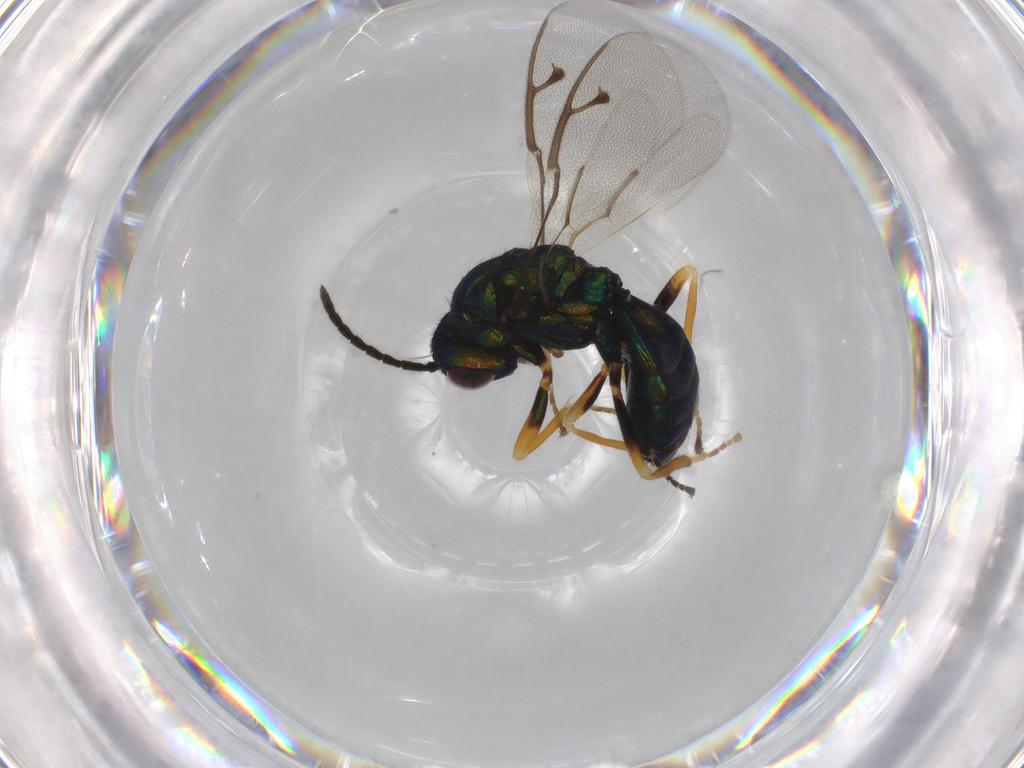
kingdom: Animalia
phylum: Arthropoda
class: Insecta
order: Hymenoptera
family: Pteromalidae
